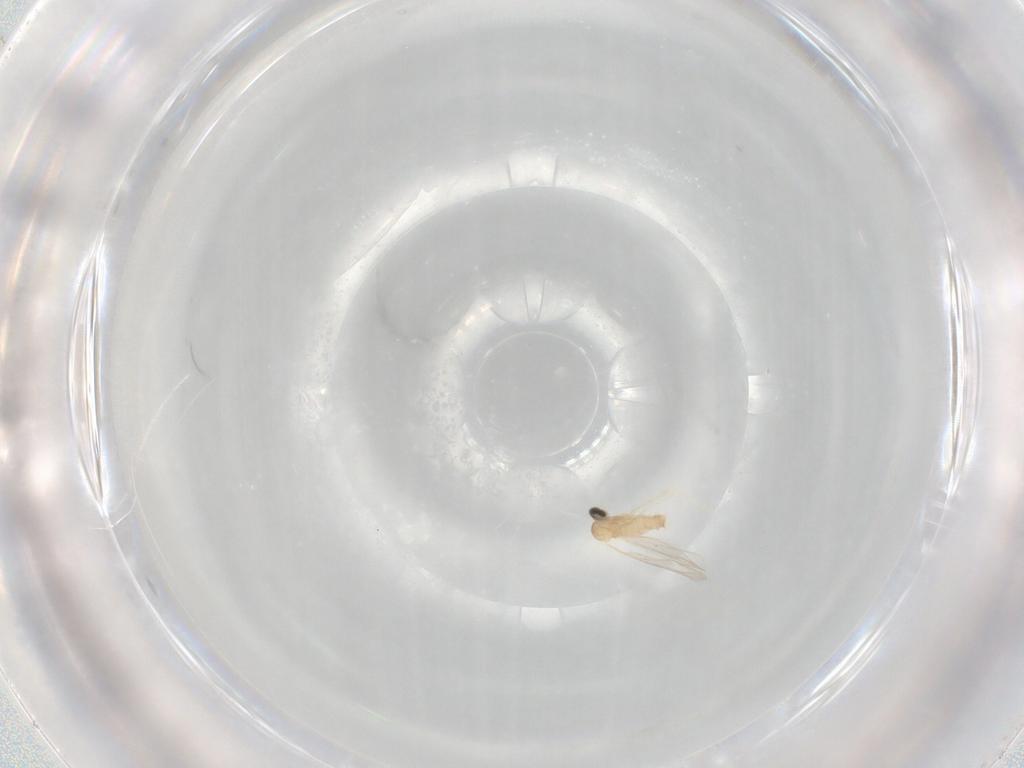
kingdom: Animalia
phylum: Arthropoda
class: Insecta
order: Diptera
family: Cecidomyiidae
